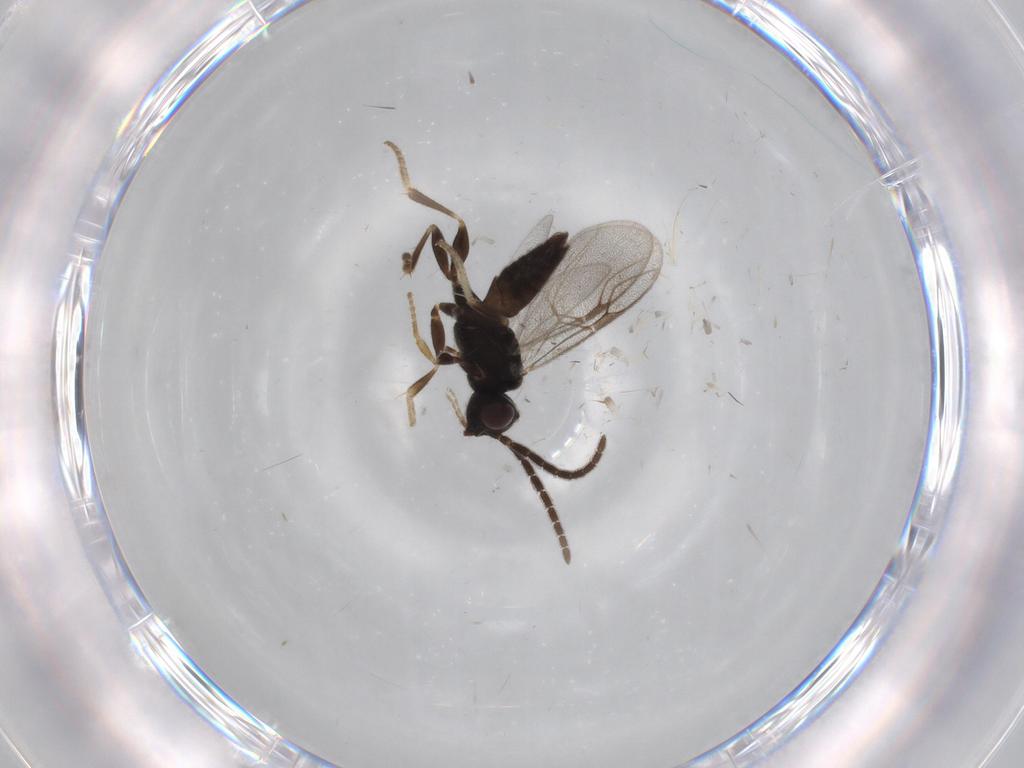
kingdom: Animalia
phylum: Arthropoda
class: Insecta
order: Hymenoptera
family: Dryinidae
